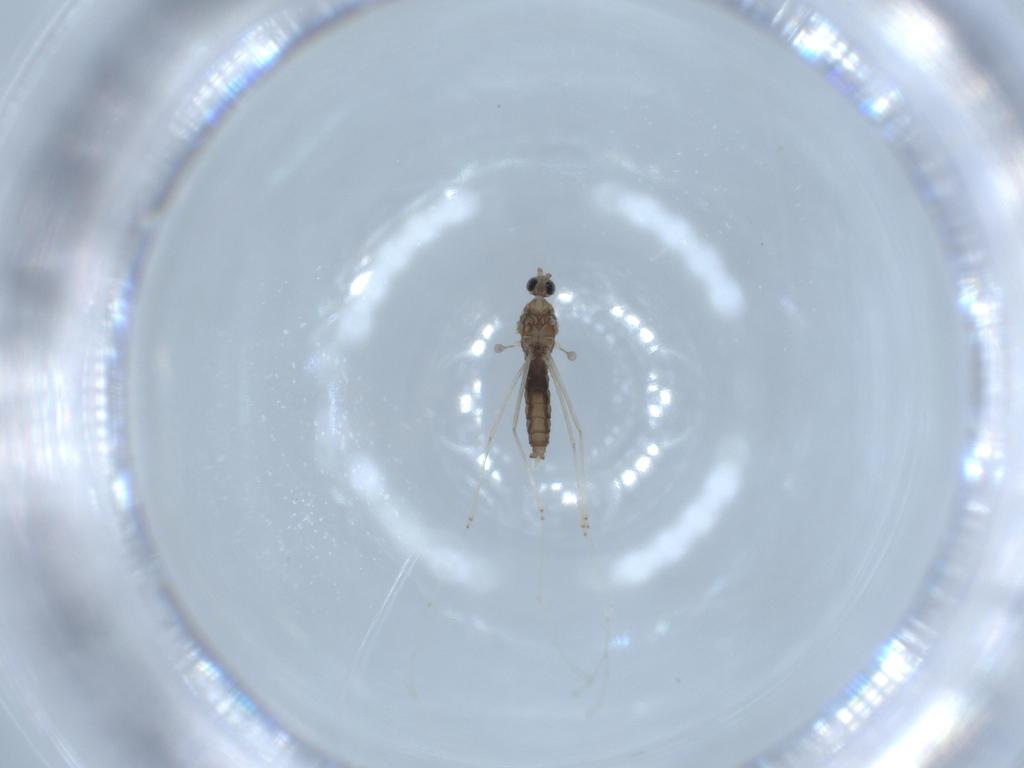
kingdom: Animalia
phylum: Arthropoda
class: Insecta
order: Diptera
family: Cecidomyiidae
